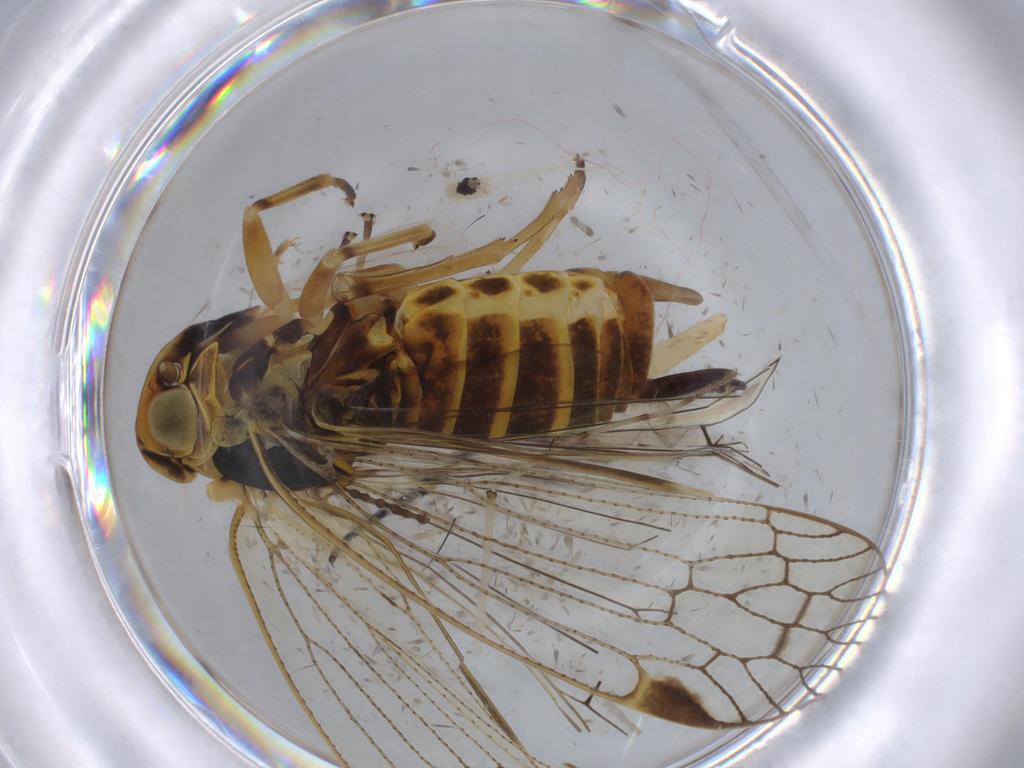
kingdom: Animalia
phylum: Arthropoda
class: Insecta
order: Hemiptera
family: Cixiidae
